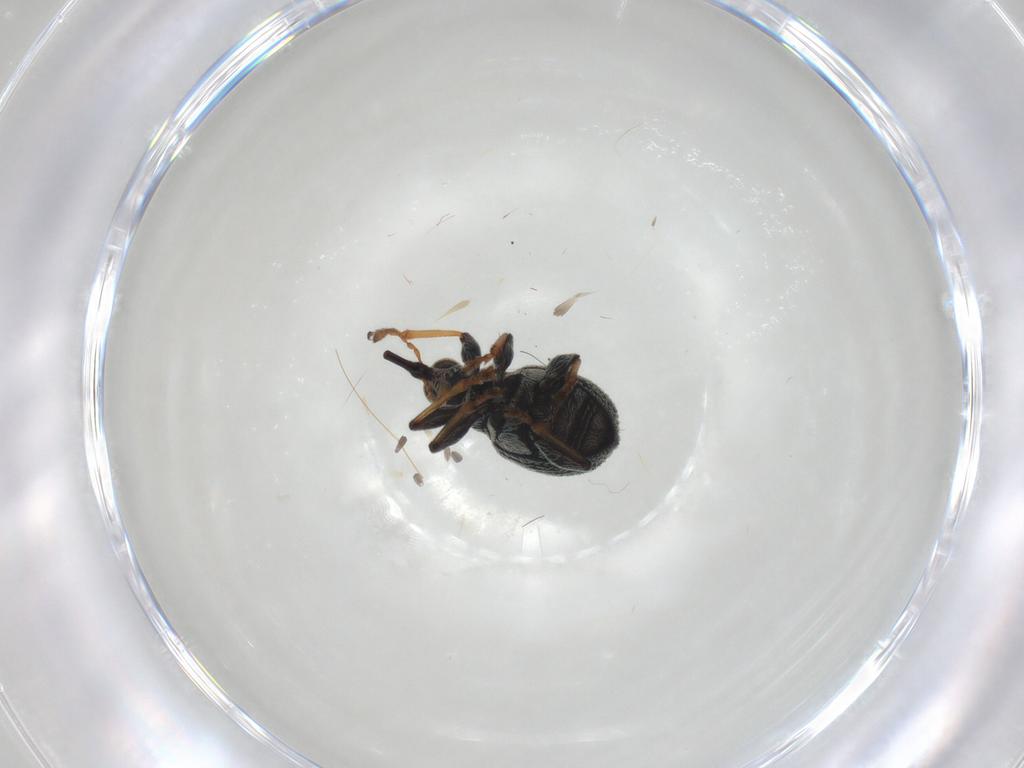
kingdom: Animalia
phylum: Arthropoda
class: Insecta
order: Coleoptera
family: Brentidae
